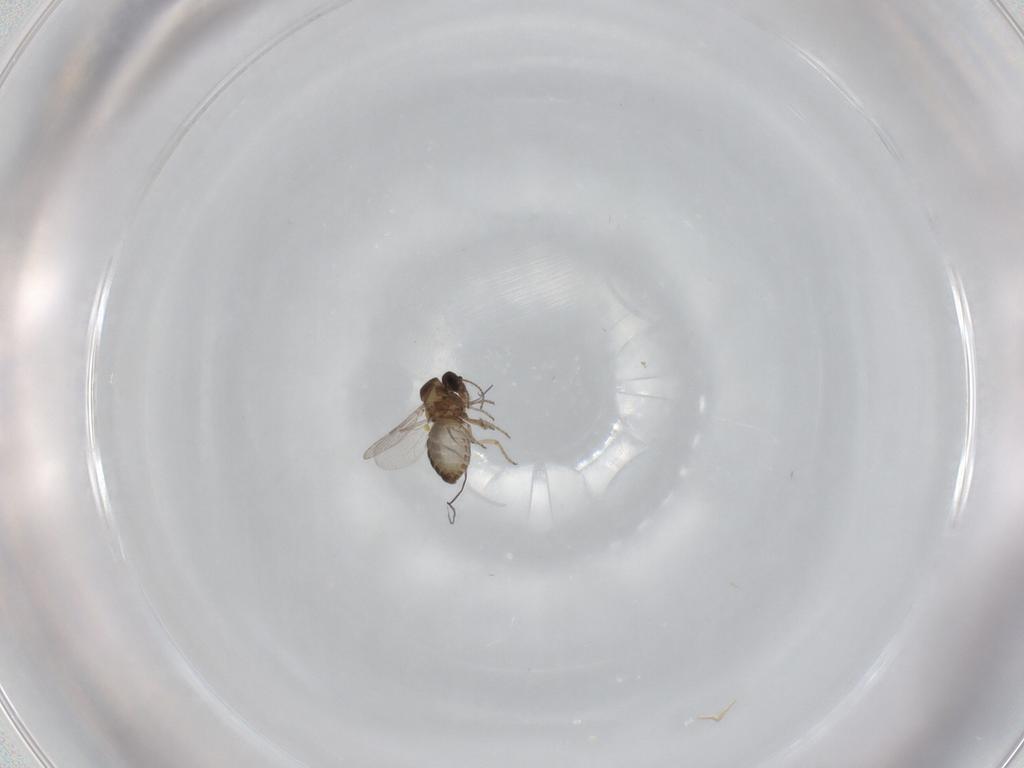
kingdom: Animalia
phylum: Arthropoda
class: Insecta
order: Diptera
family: Ceratopogonidae
